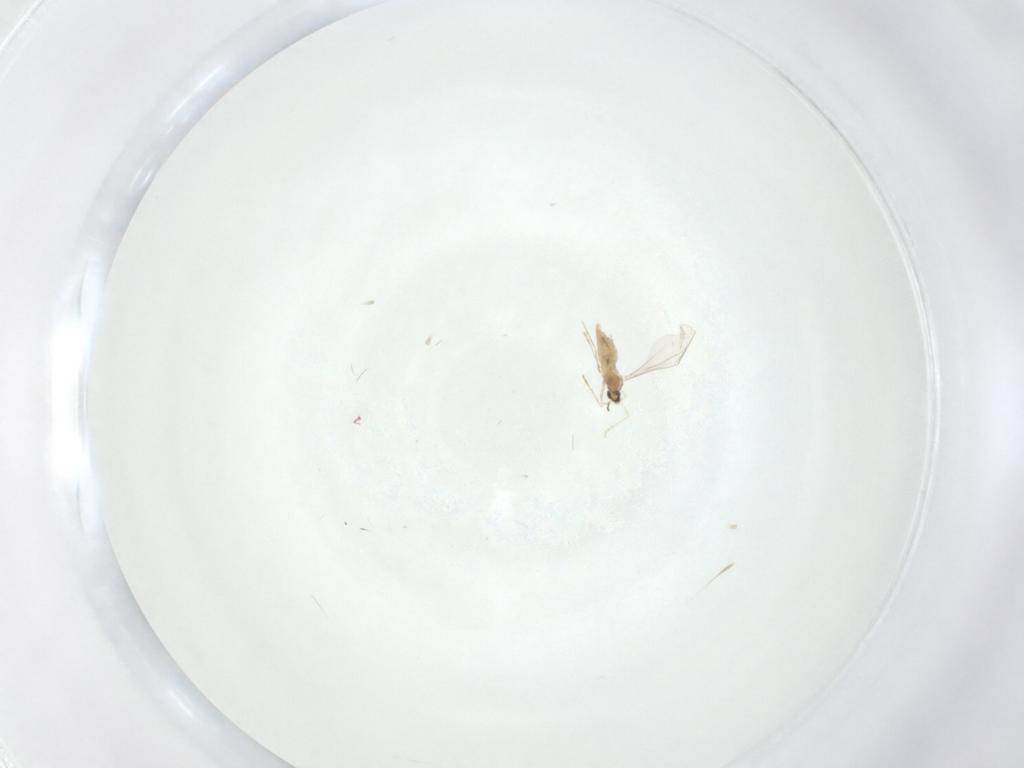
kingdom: Animalia
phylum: Arthropoda
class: Insecta
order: Diptera
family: Cecidomyiidae
